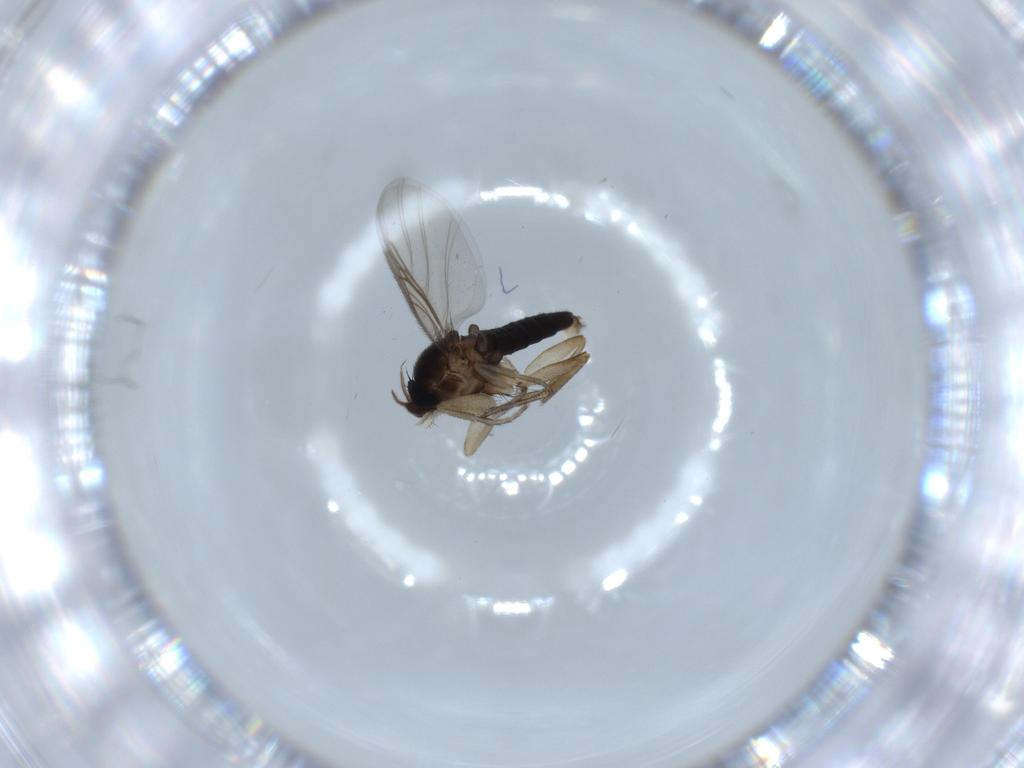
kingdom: Animalia
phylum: Arthropoda
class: Insecta
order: Diptera
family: Phoridae
